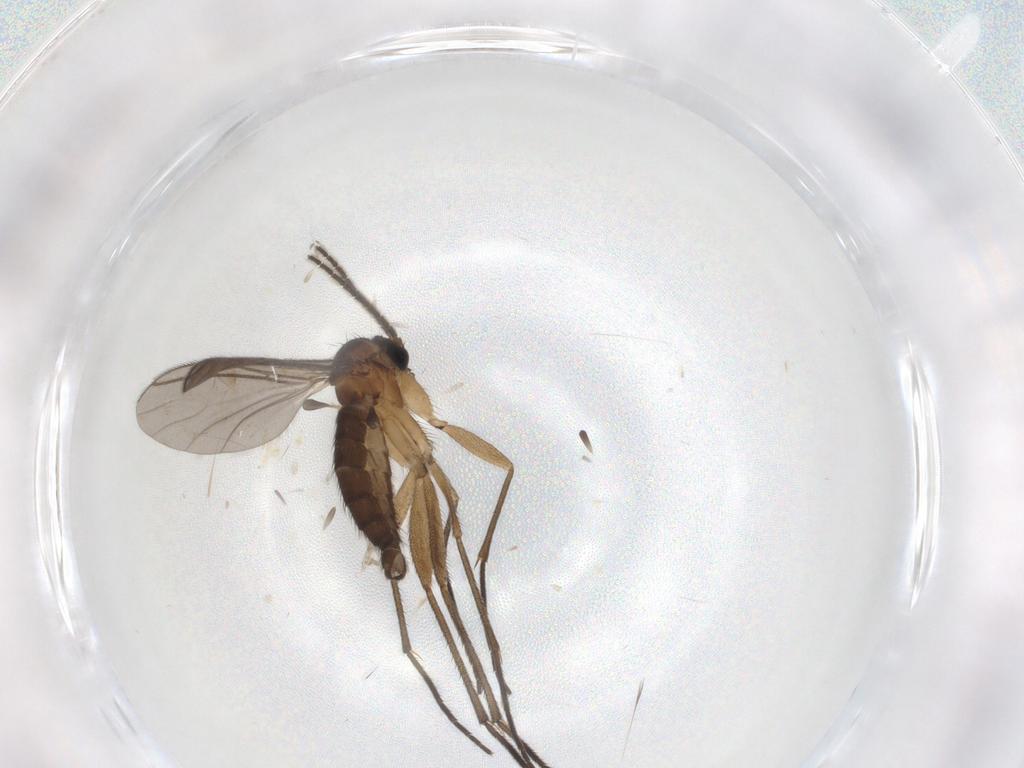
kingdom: Animalia
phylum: Arthropoda
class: Insecta
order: Diptera
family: Sciaridae
